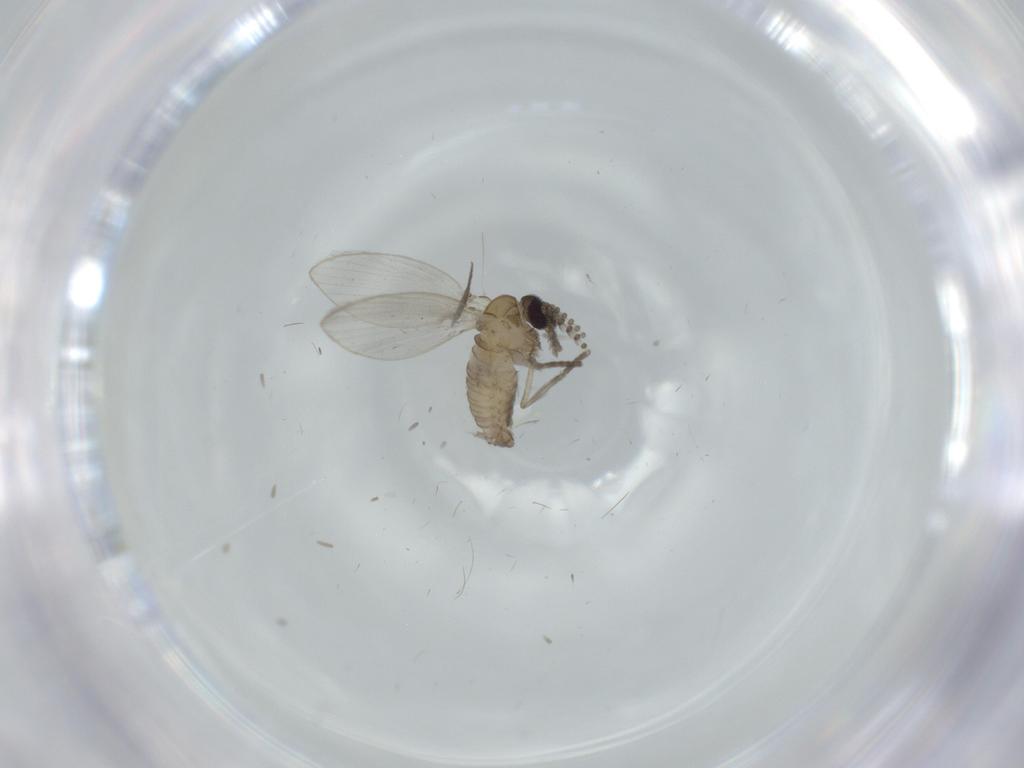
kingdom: Animalia
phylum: Arthropoda
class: Insecta
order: Diptera
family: Psychodidae
